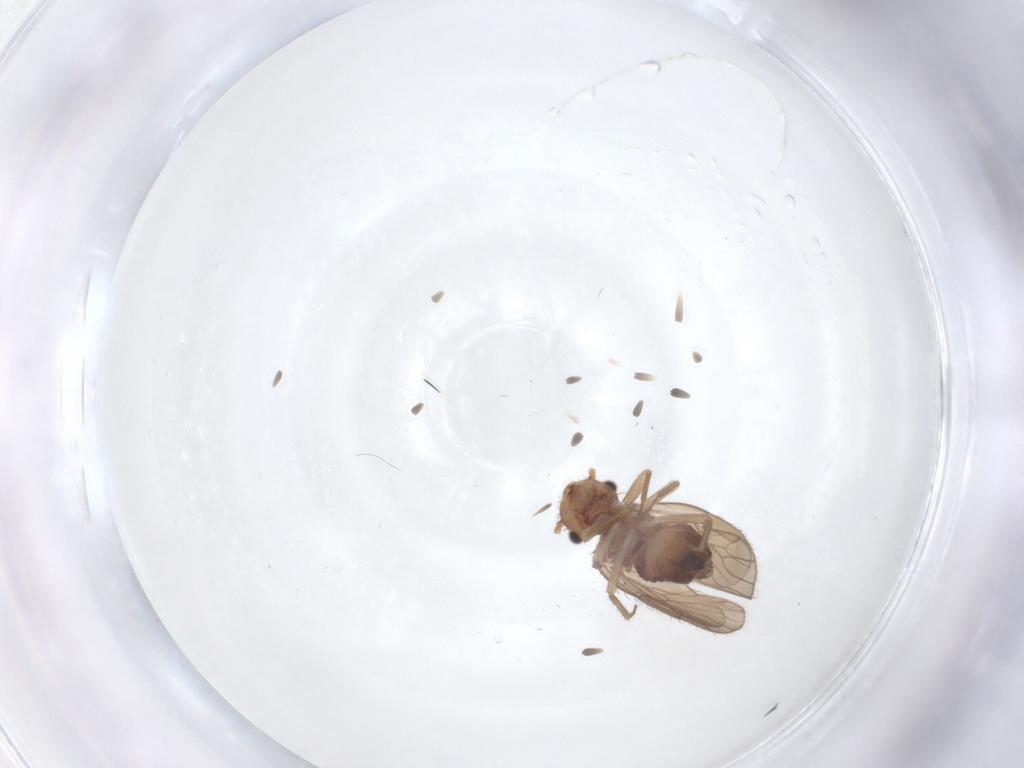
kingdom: Animalia
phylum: Arthropoda
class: Insecta
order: Psocodea
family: Ectopsocidae
